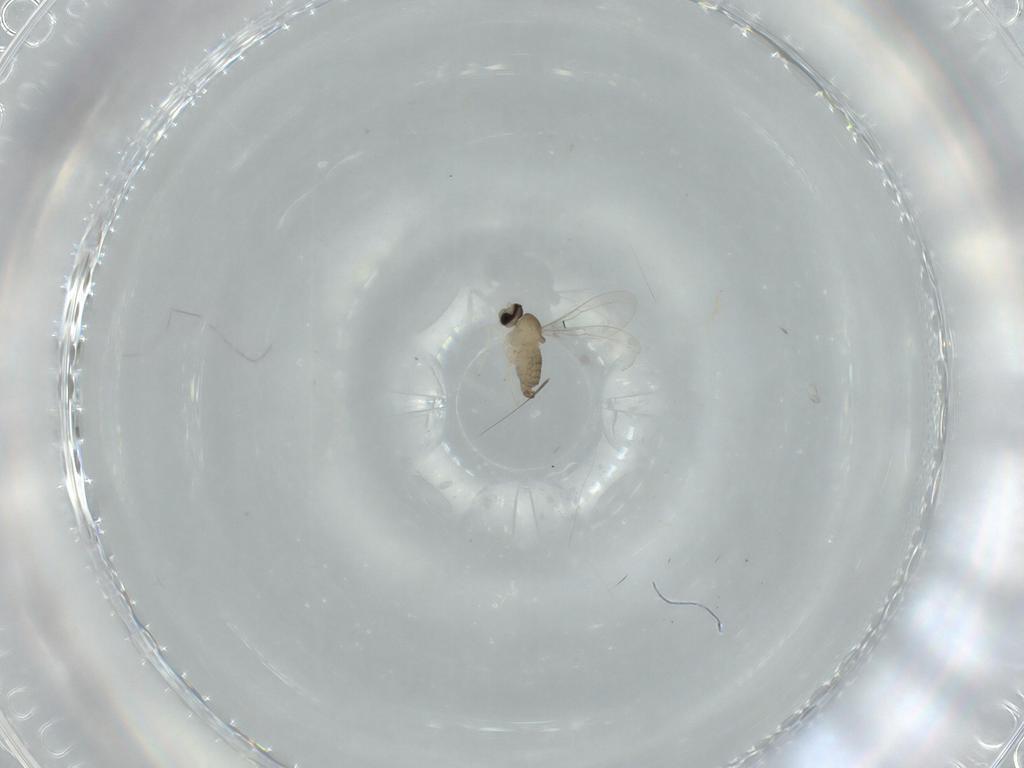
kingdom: Animalia
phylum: Arthropoda
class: Insecta
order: Diptera
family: Cecidomyiidae
